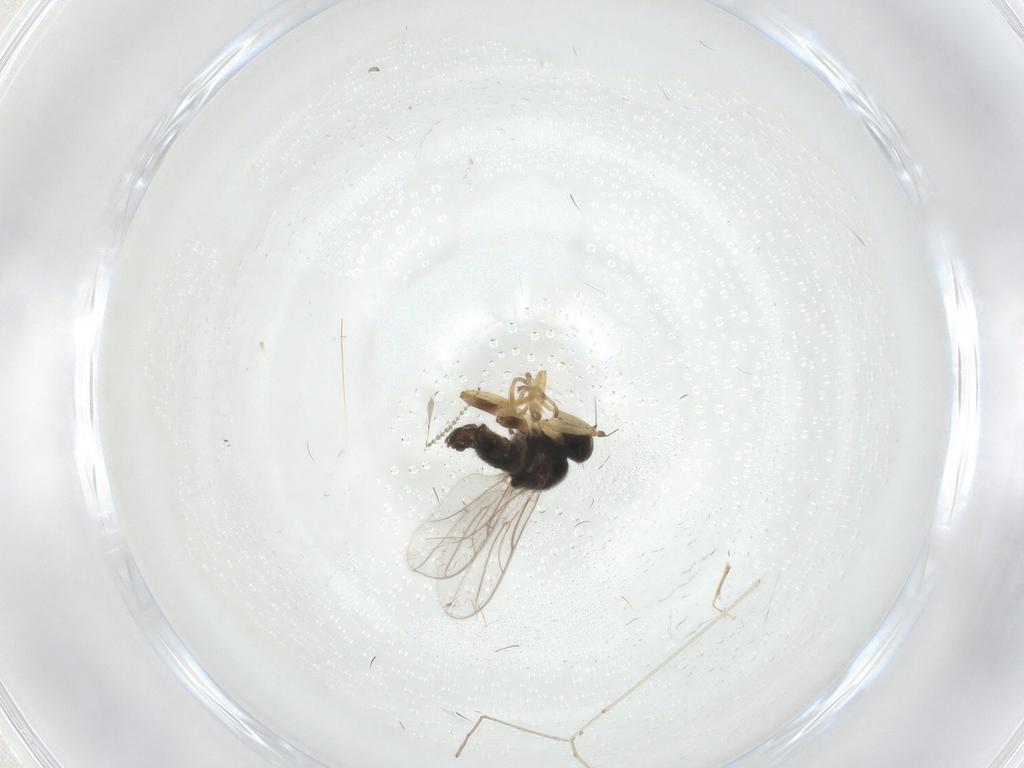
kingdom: Animalia
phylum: Arthropoda
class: Insecta
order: Diptera
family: Hybotidae
